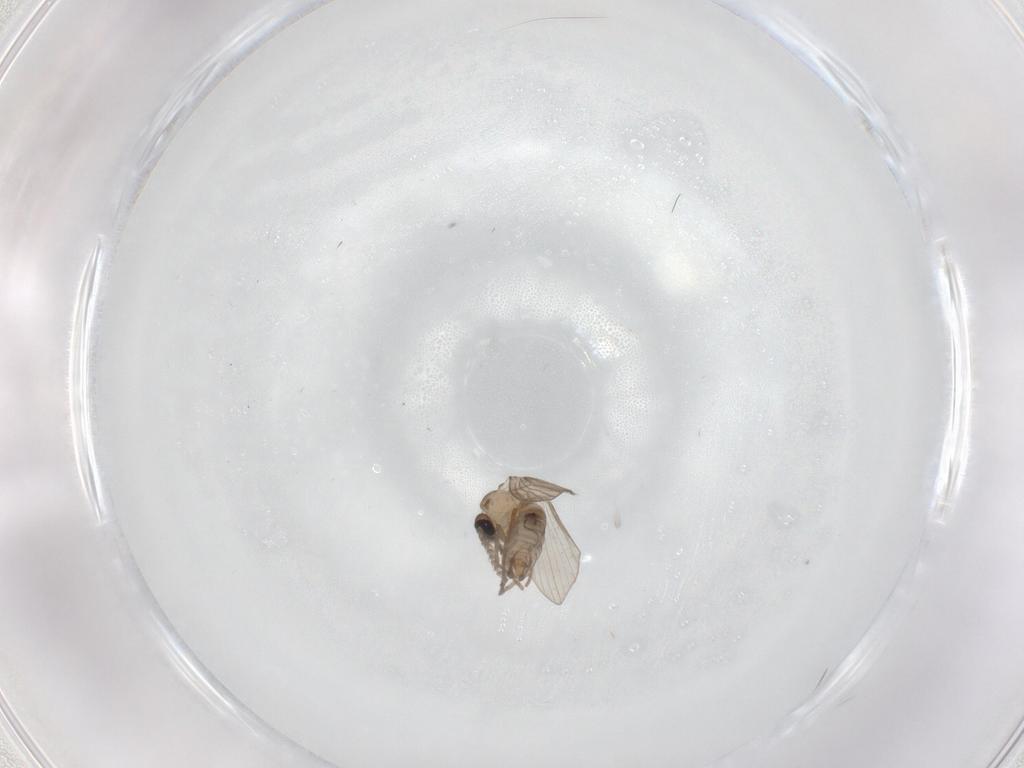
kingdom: Animalia
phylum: Arthropoda
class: Insecta
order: Diptera
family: Psychodidae
